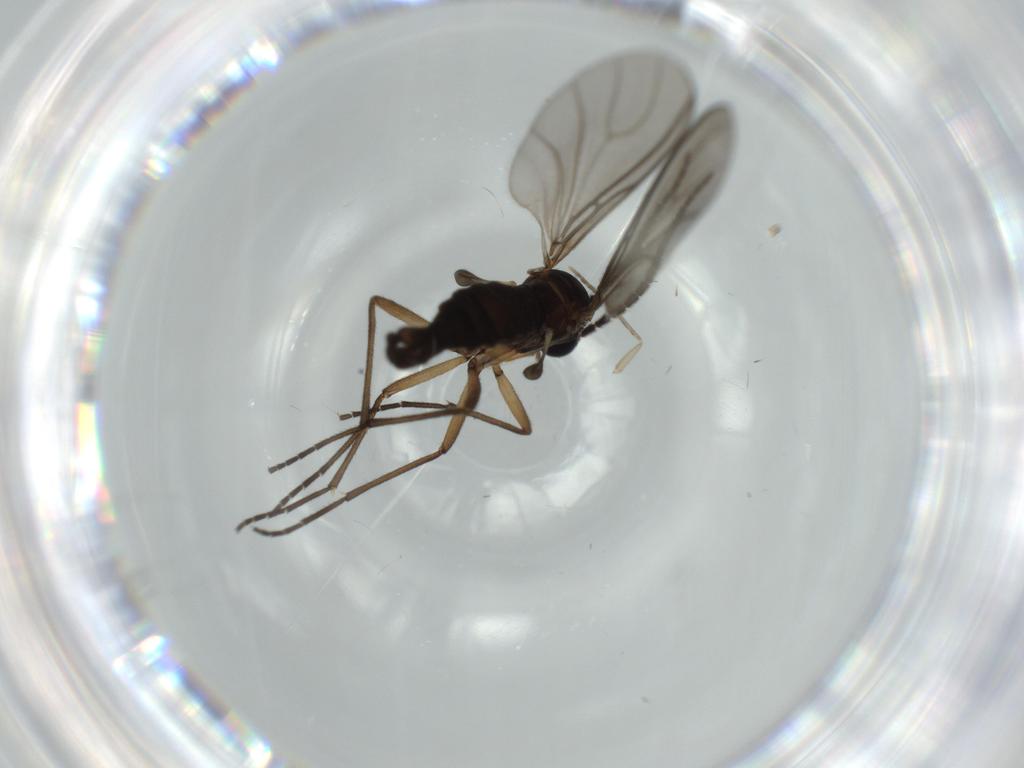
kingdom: Animalia
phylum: Arthropoda
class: Insecta
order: Diptera
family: Sciaridae
